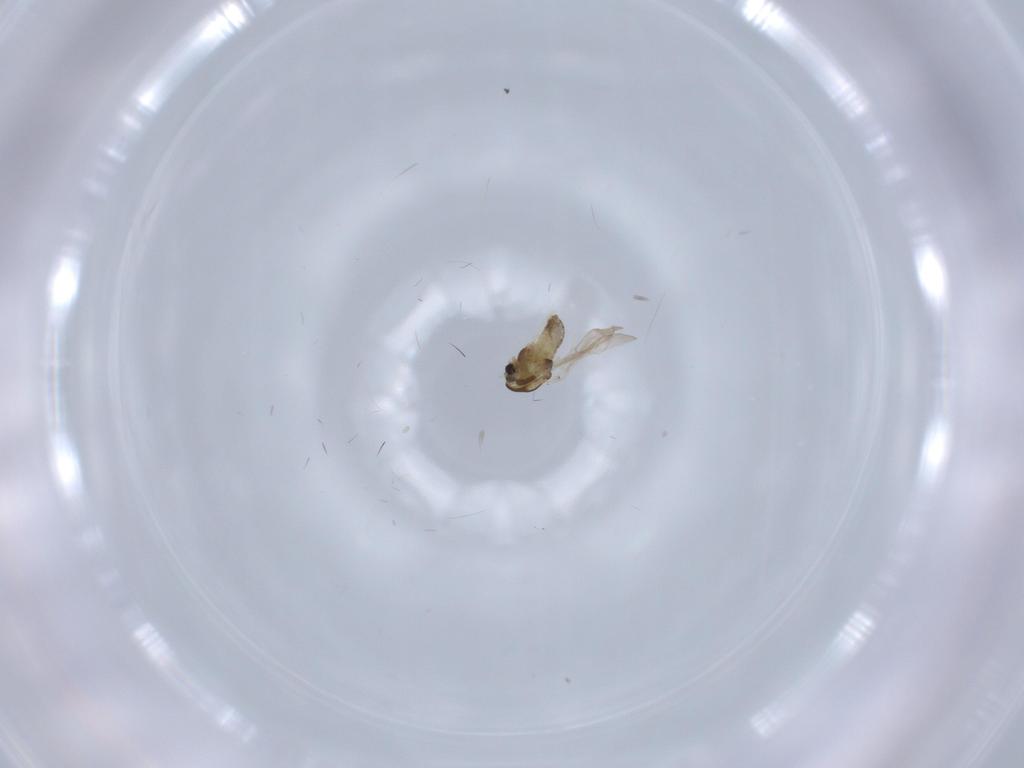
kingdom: Animalia
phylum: Arthropoda
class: Insecta
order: Diptera
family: Chironomidae
